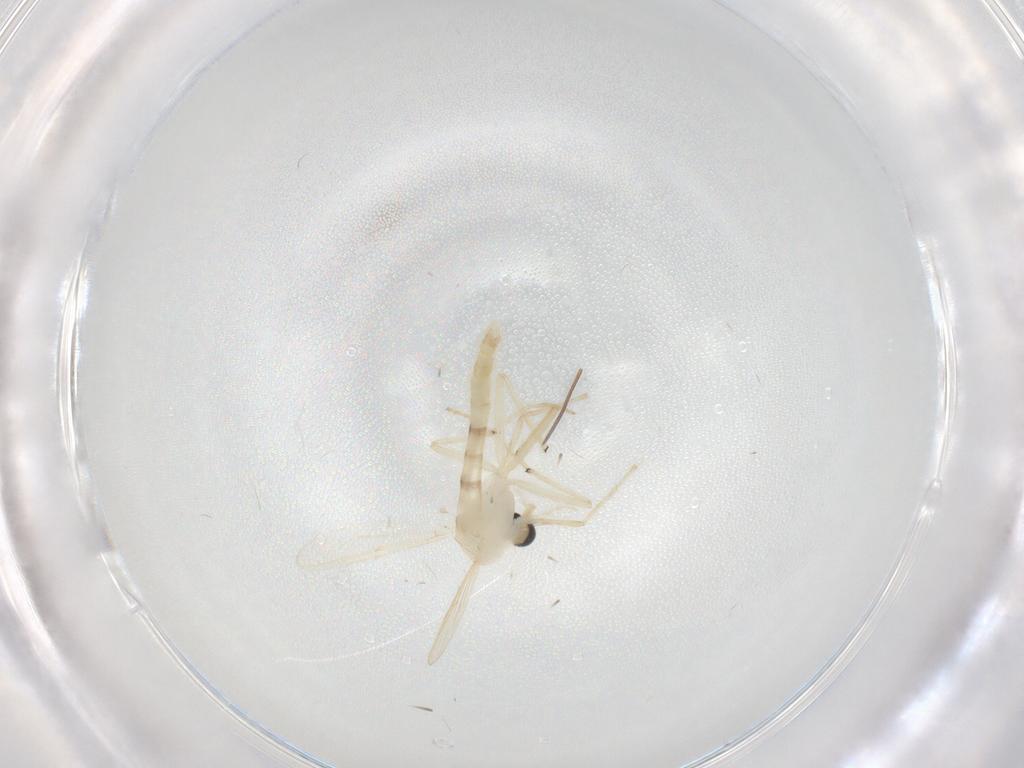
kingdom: Animalia
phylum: Arthropoda
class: Insecta
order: Diptera
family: Chironomidae
